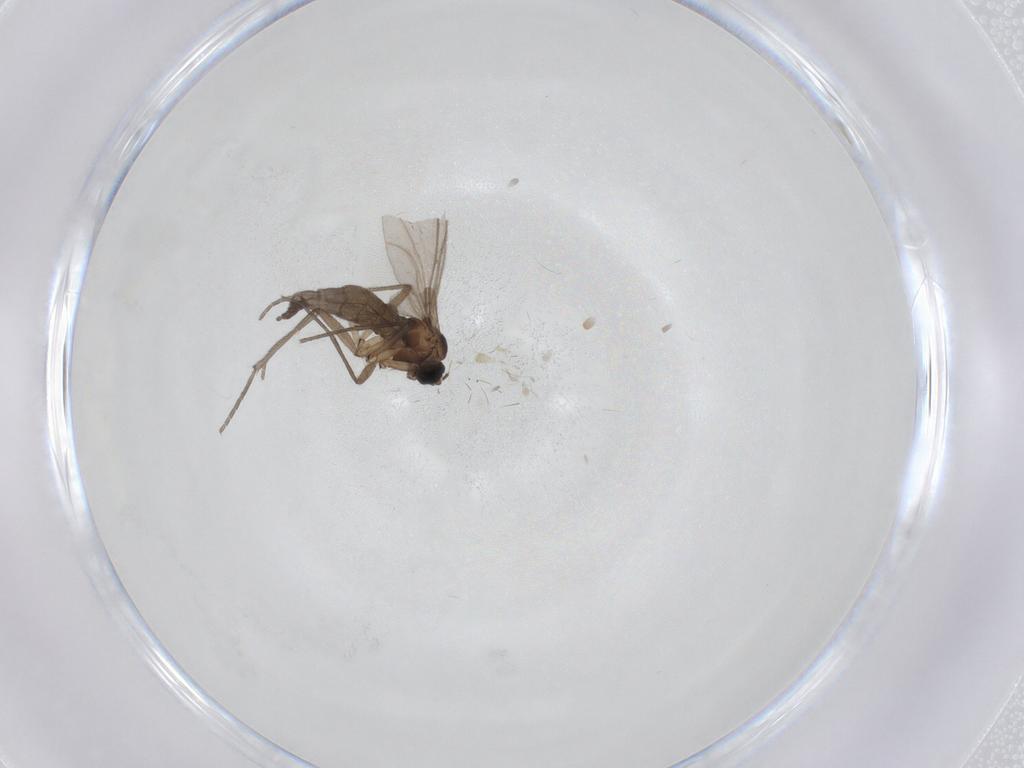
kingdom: Animalia
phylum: Arthropoda
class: Insecta
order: Diptera
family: Sciaridae
